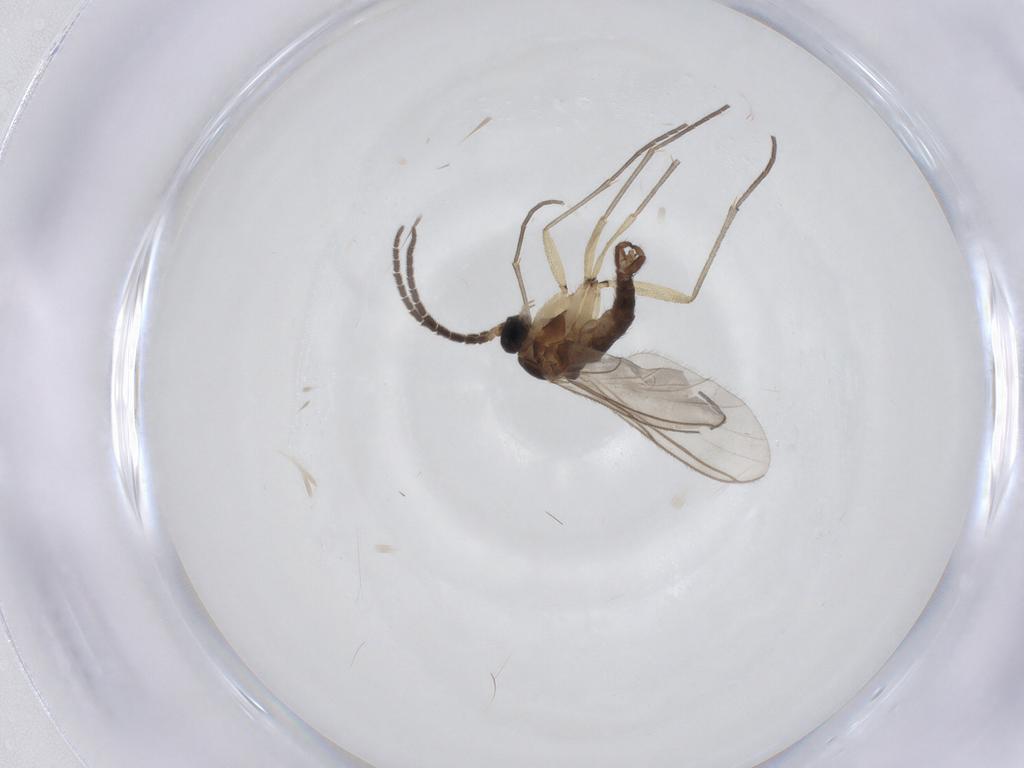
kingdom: Animalia
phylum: Arthropoda
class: Insecta
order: Diptera
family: Sciaridae
